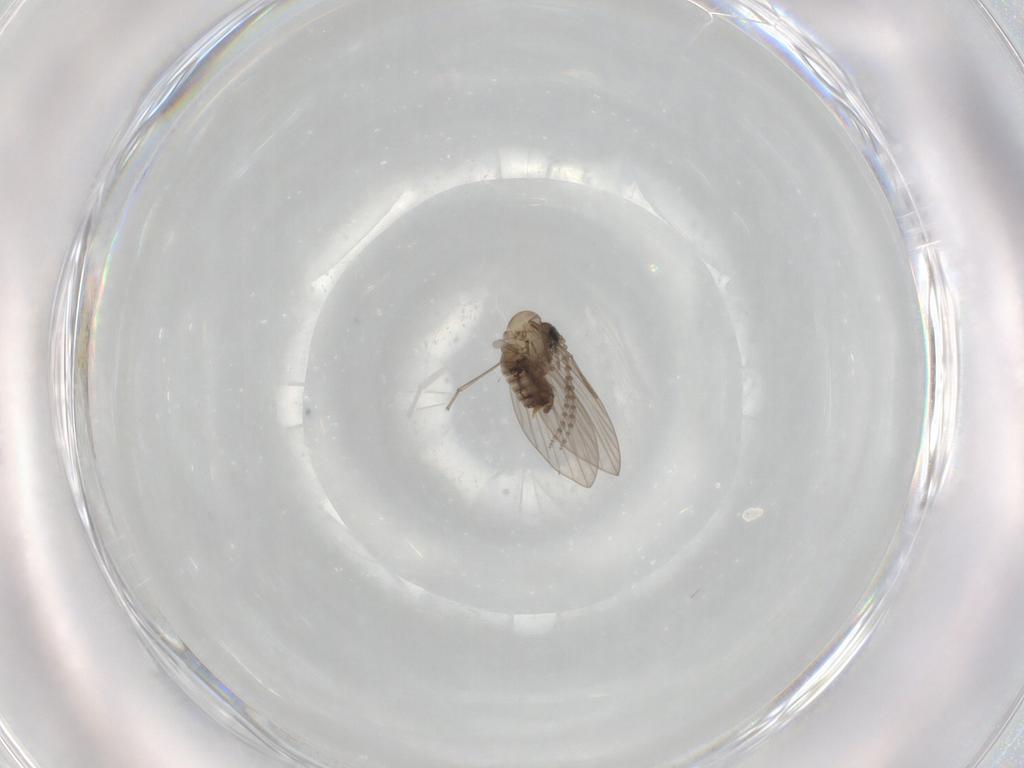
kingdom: Animalia
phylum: Arthropoda
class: Insecta
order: Diptera
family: Psychodidae
